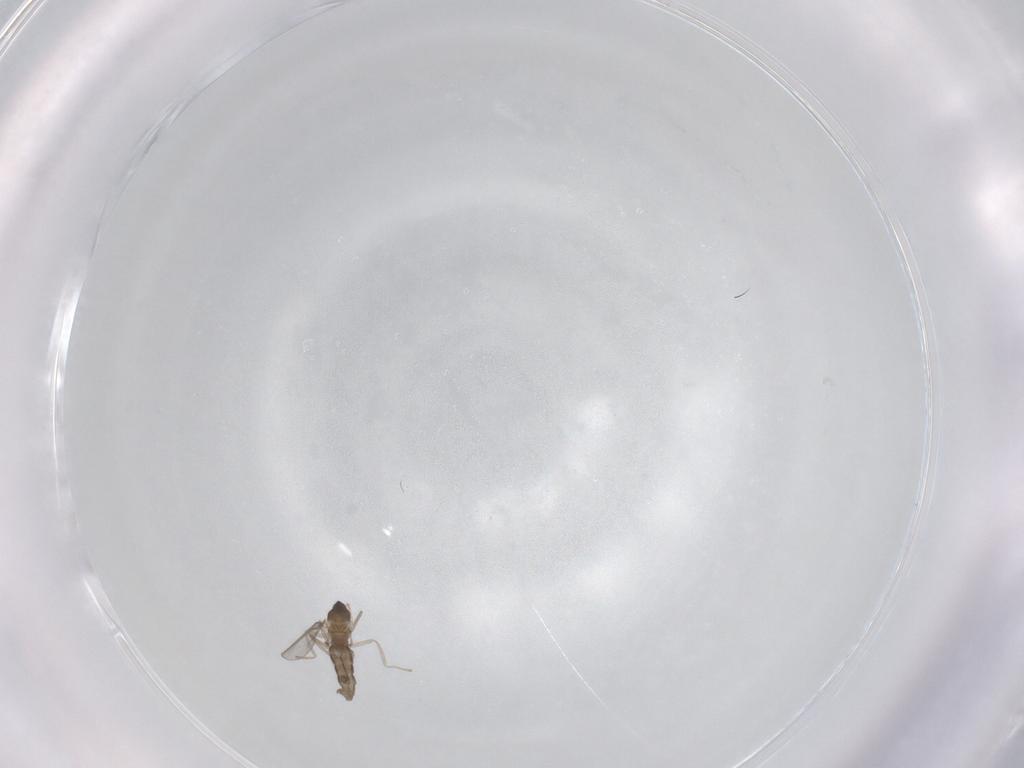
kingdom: Animalia
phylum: Arthropoda
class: Insecta
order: Diptera
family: Cecidomyiidae
